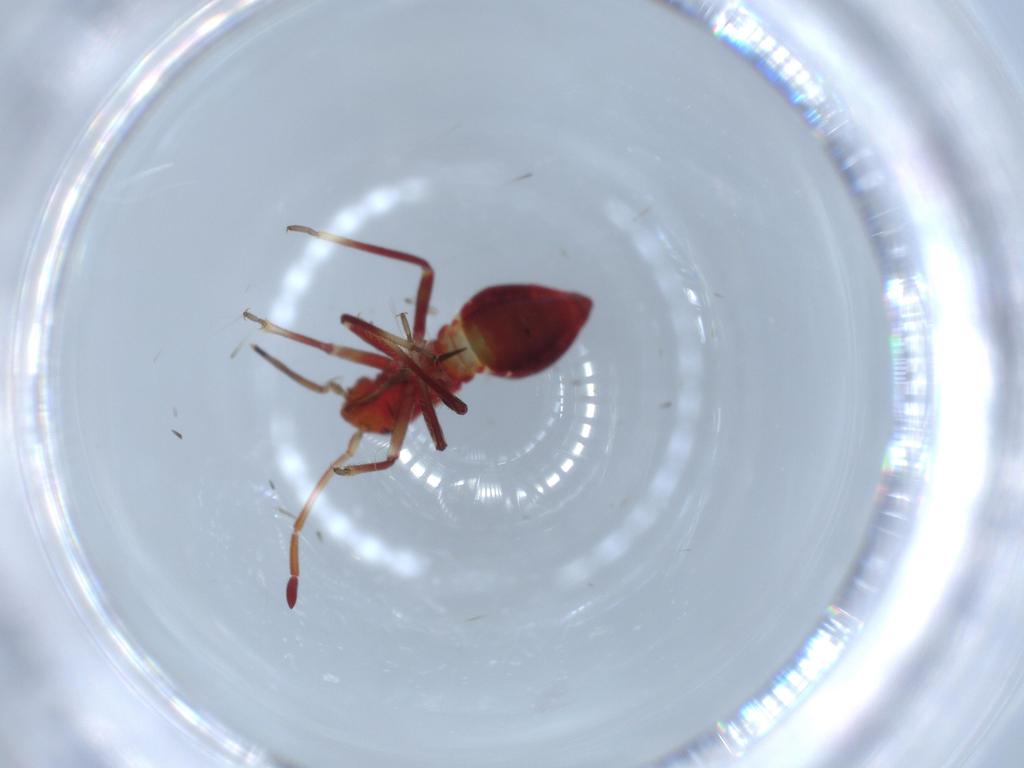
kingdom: Animalia
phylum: Arthropoda
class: Insecta
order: Hemiptera
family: Miridae
